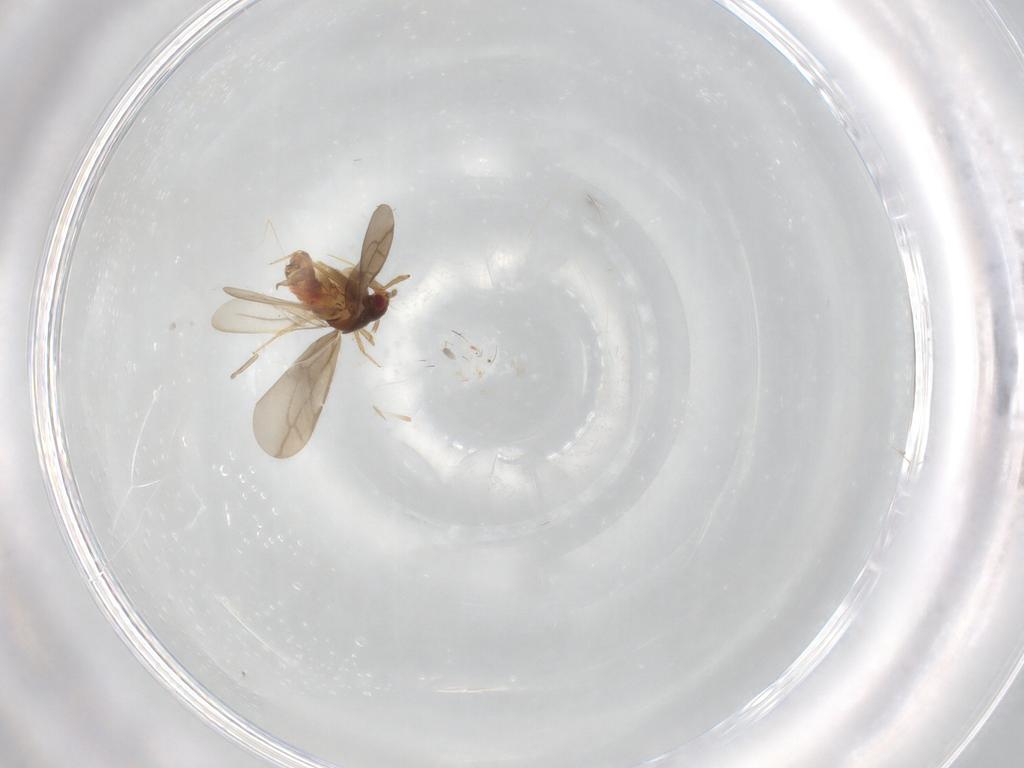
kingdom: Animalia
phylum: Arthropoda
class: Insecta
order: Hemiptera
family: Ceratocombidae
